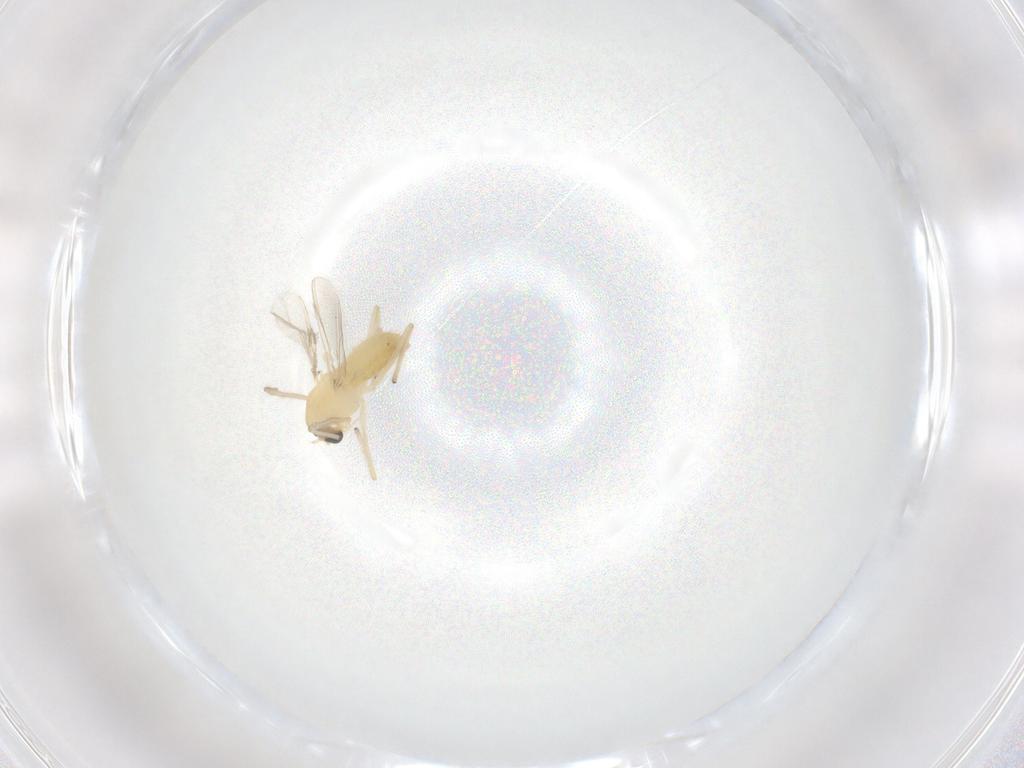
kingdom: Animalia
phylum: Arthropoda
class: Insecta
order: Diptera
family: Chironomidae
